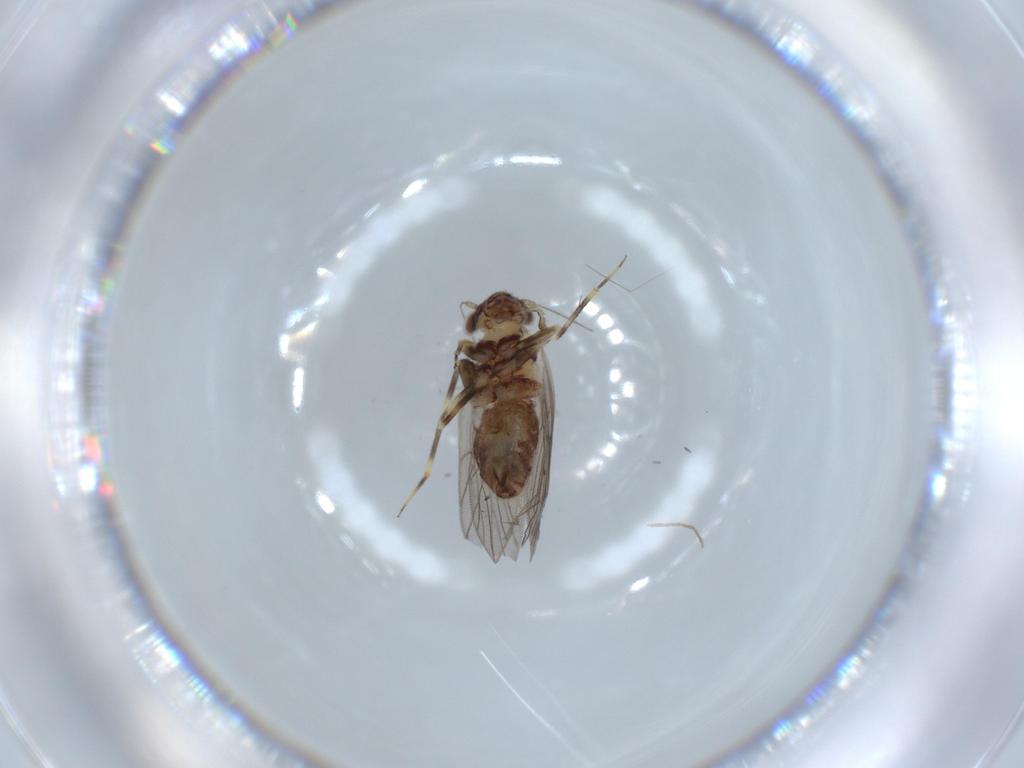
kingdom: Animalia
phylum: Arthropoda
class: Insecta
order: Psocodea
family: Lepidopsocidae
